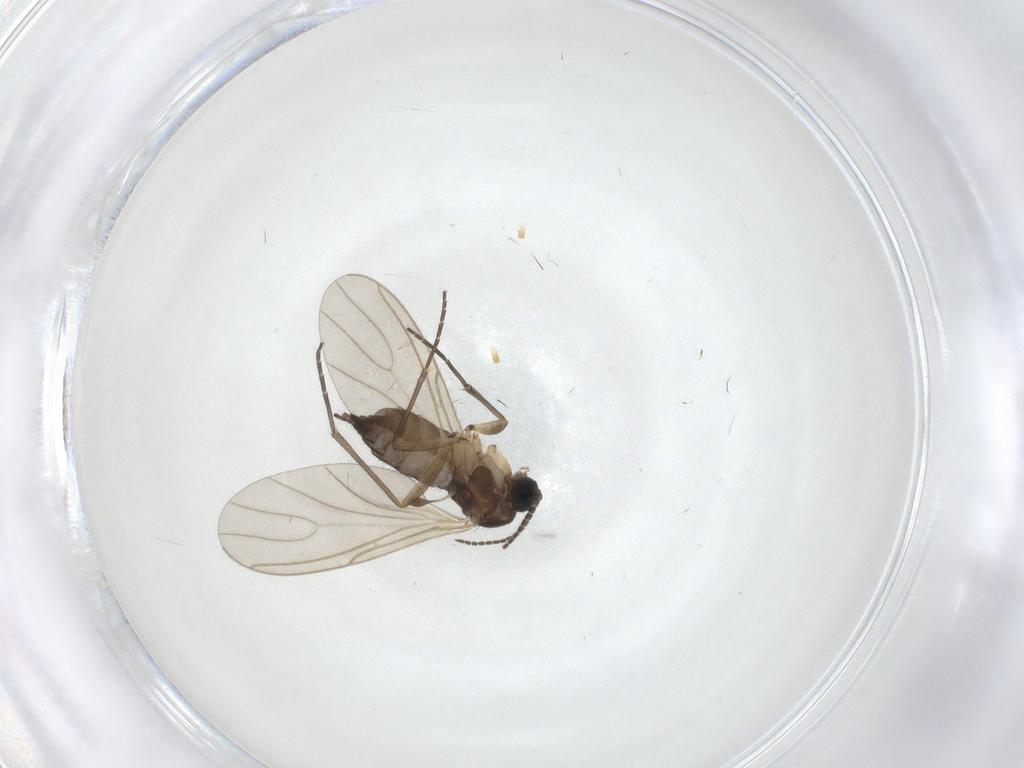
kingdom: Animalia
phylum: Arthropoda
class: Insecta
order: Diptera
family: Sciaridae
